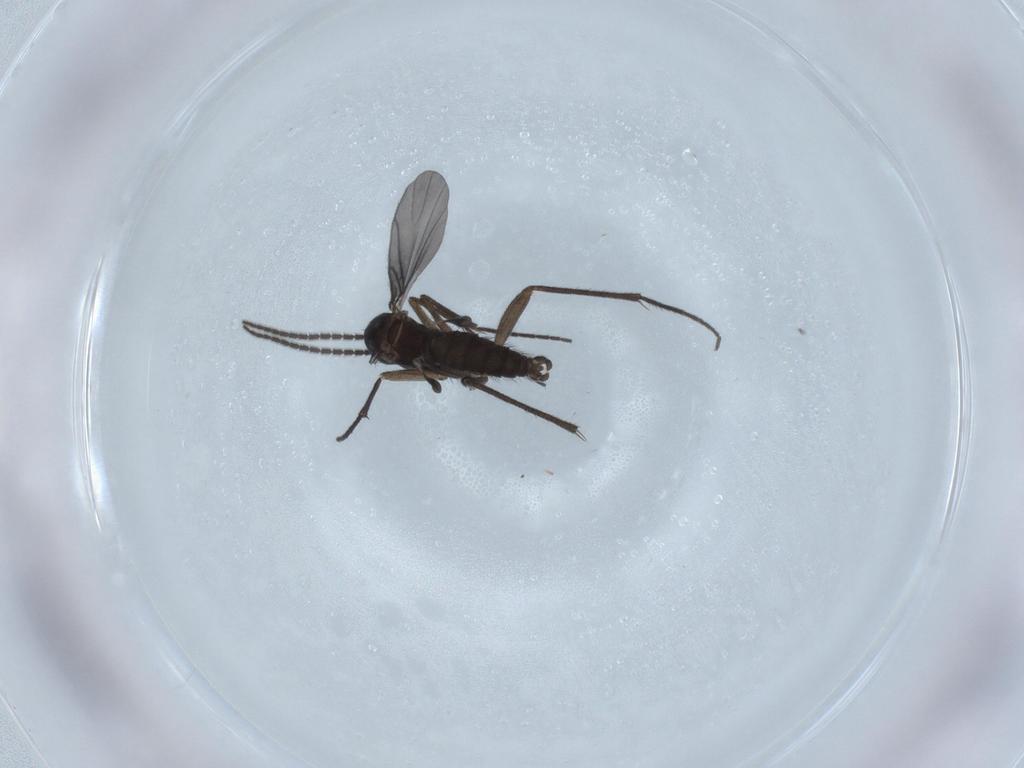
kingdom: Animalia
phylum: Arthropoda
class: Insecta
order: Diptera
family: Sciaridae
